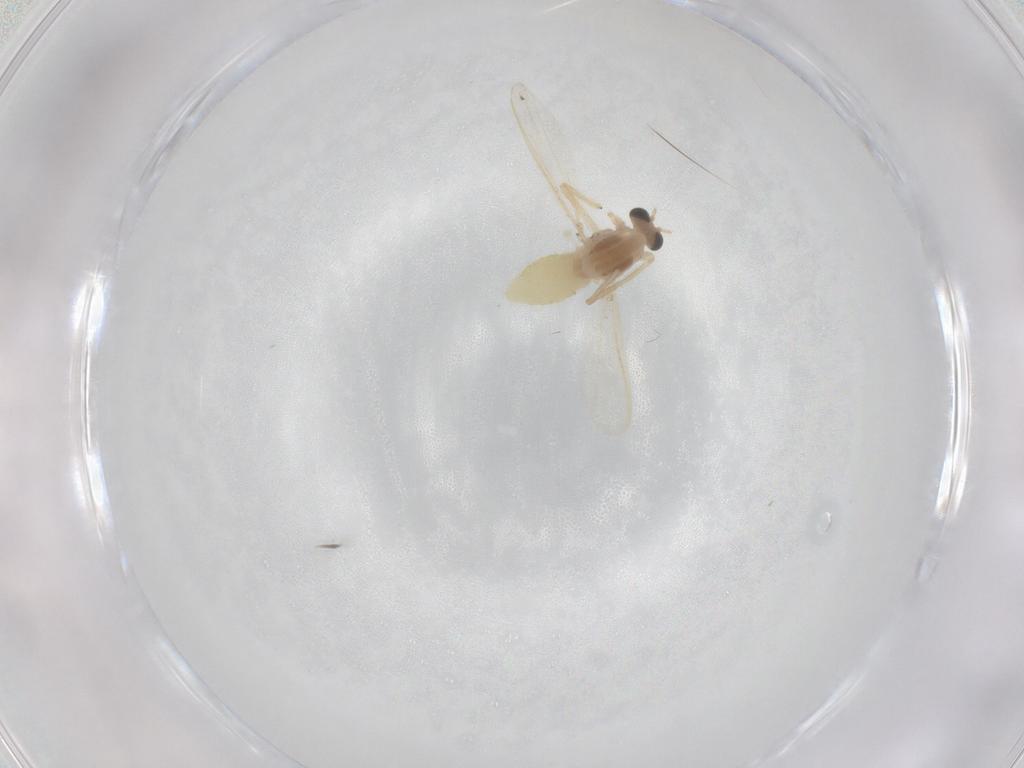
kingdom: Animalia
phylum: Arthropoda
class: Insecta
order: Diptera
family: Chironomidae
